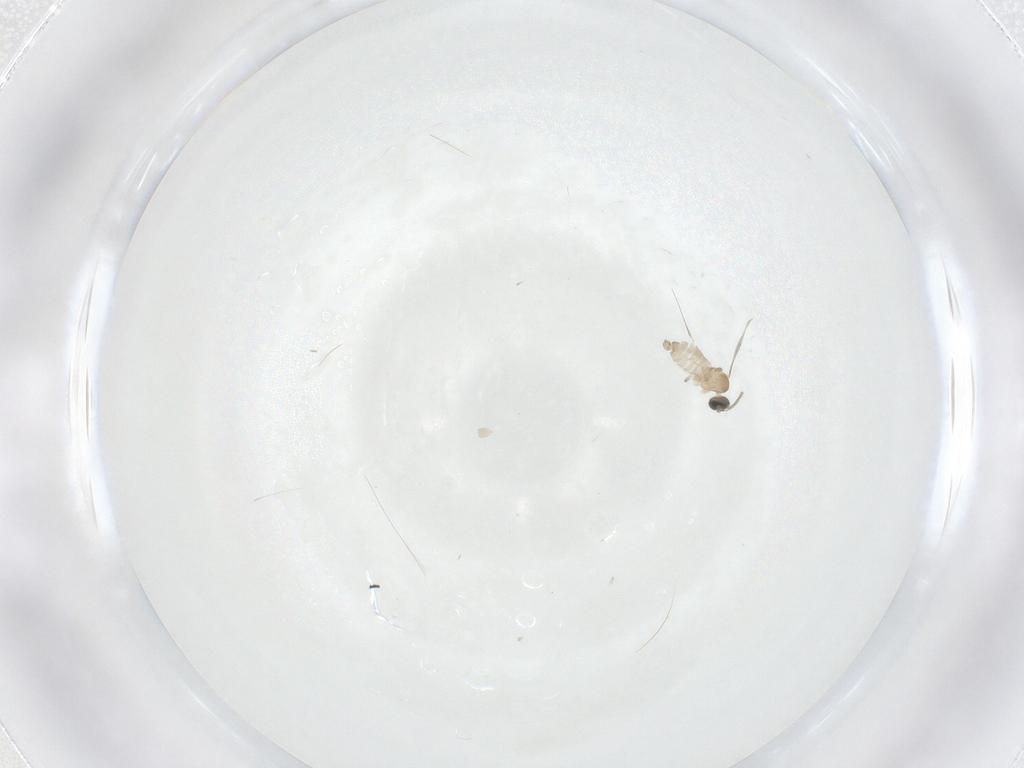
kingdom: Animalia
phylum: Arthropoda
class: Insecta
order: Diptera
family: Cecidomyiidae
